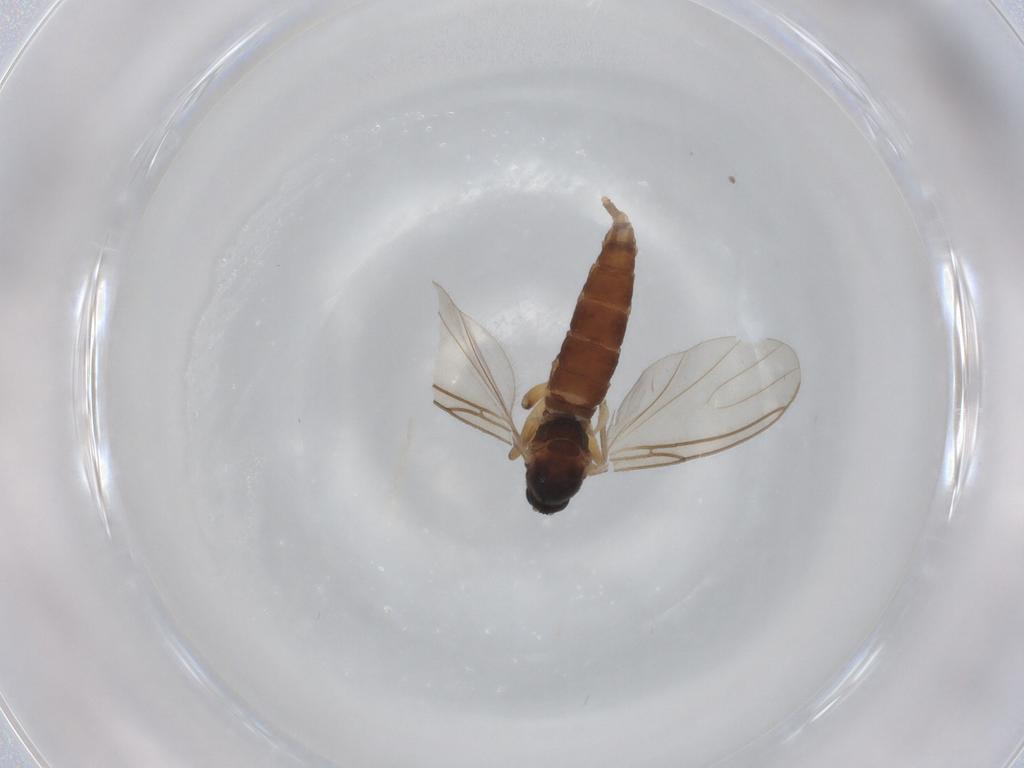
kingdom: Animalia
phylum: Arthropoda
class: Insecta
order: Diptera
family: Sciaridae
